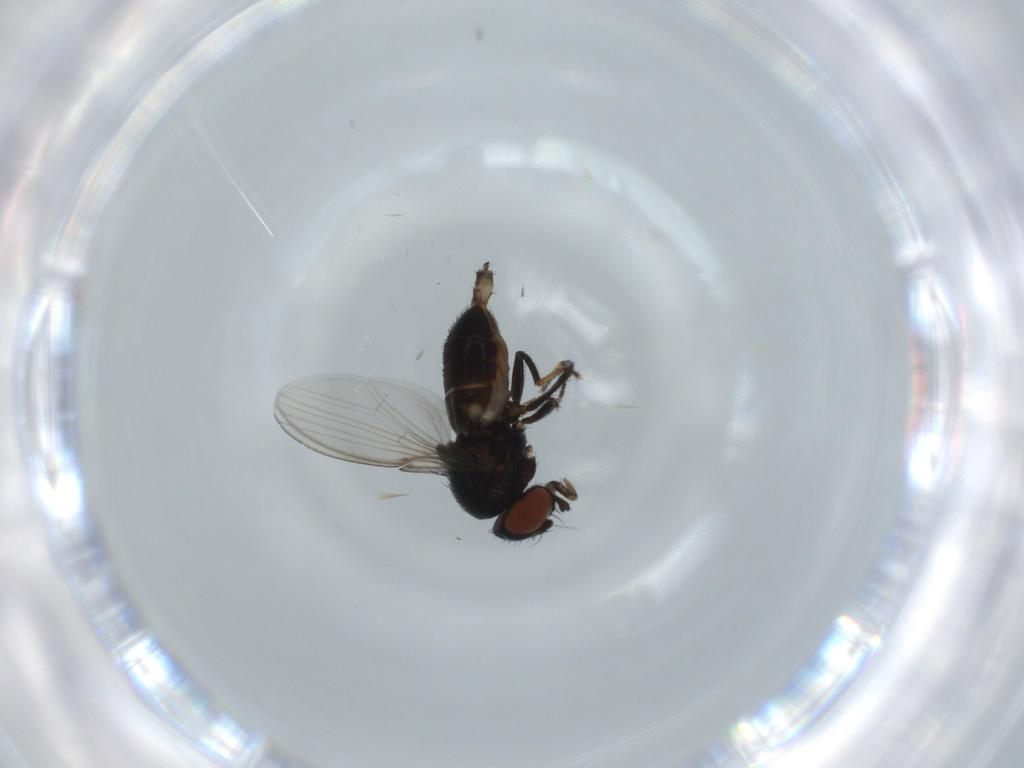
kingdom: Animalia
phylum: Arthropoda
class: Insecta
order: Diptera
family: Milichiidae
